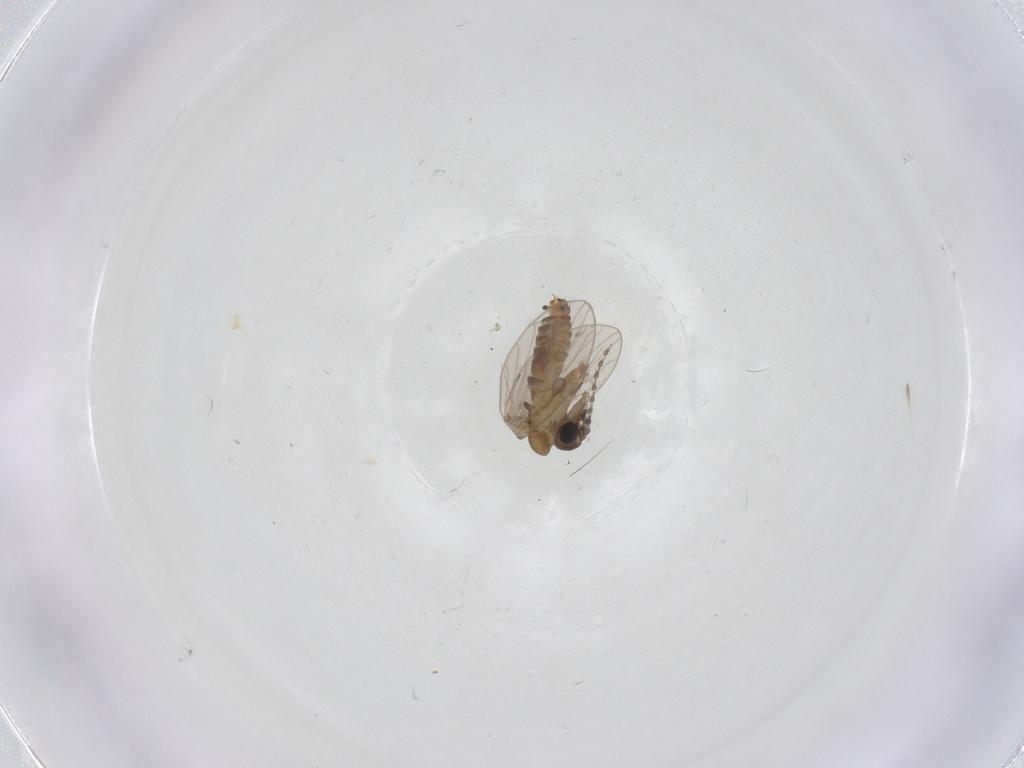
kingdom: Animalia
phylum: Arthropoda
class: Insecta
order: Diptera
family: Psychodidae
